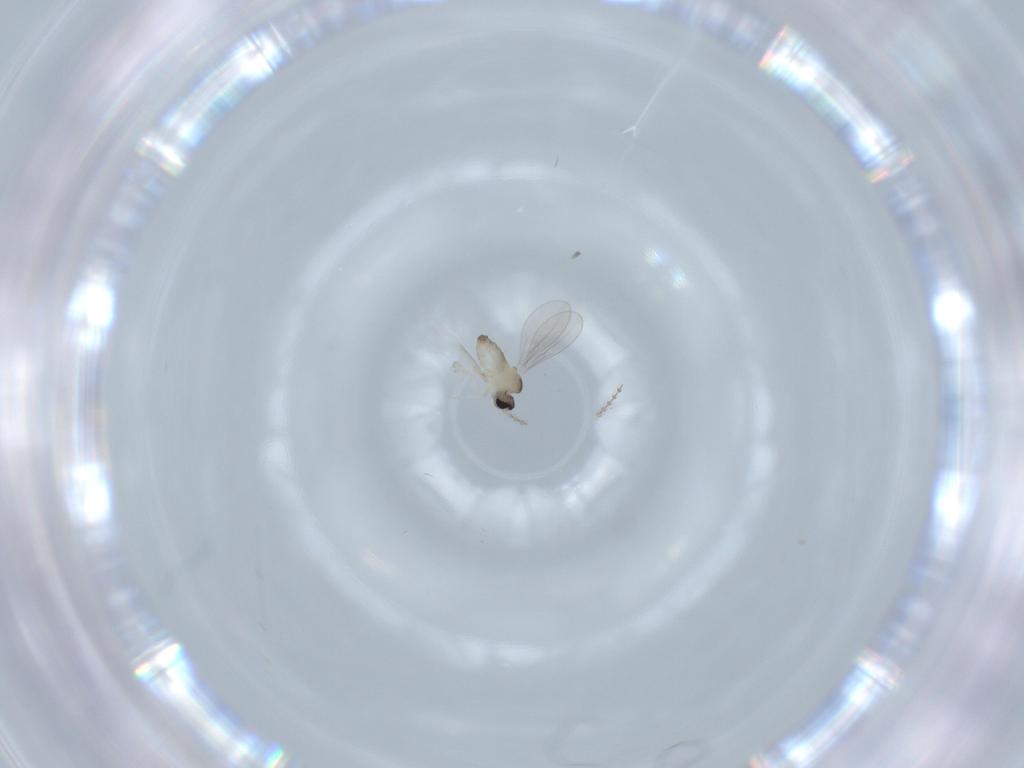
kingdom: Animalia
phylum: Arthropoda
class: Insecta
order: Diptera
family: Cecidomyiidae
